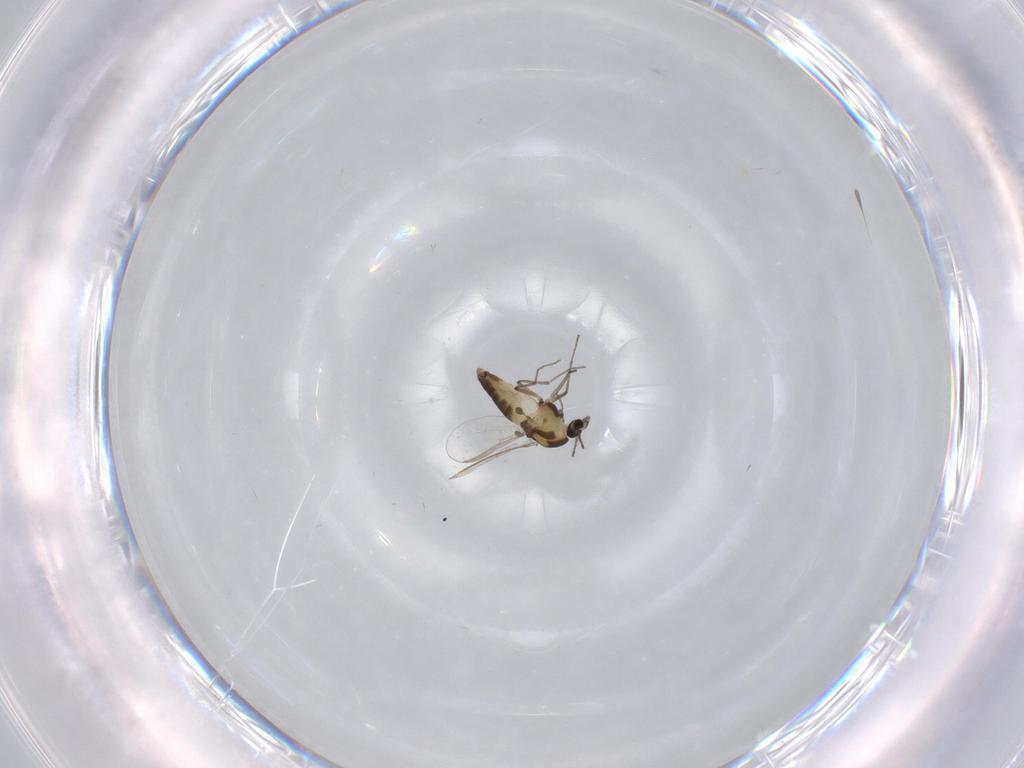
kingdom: Animalia
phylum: Arthropoda
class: Insecta
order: Diptera
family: Cecidomyiidae
